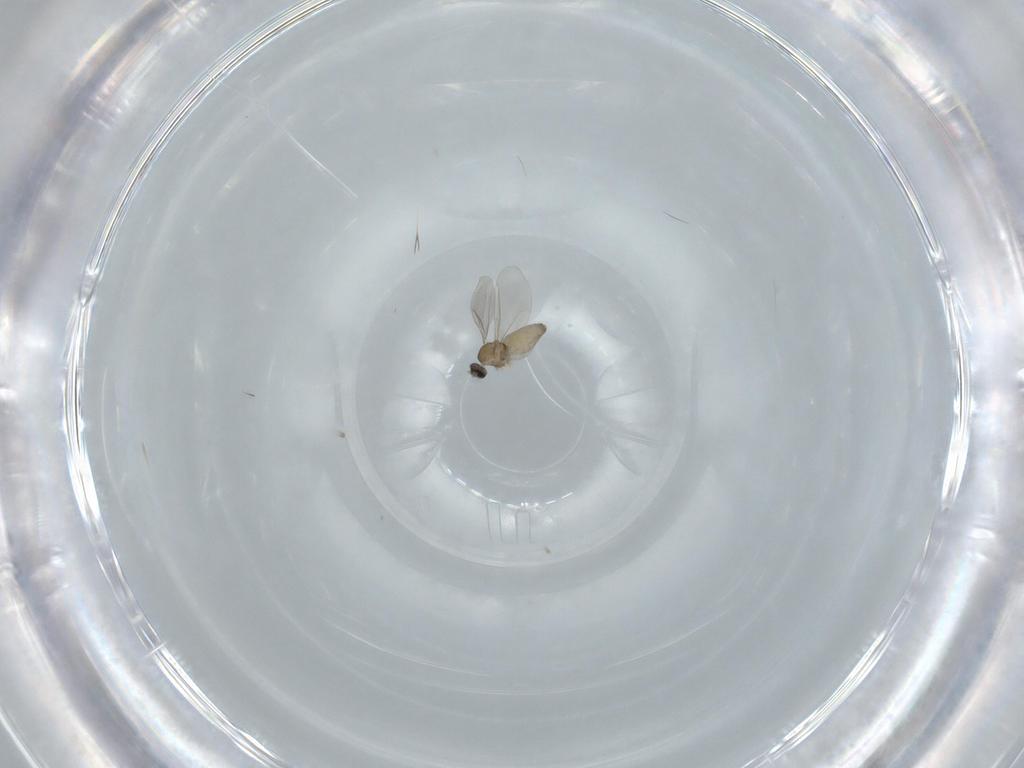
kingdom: Animalia
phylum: Arthropoda
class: Insecta
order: Diptera
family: Cecidomyiidae
